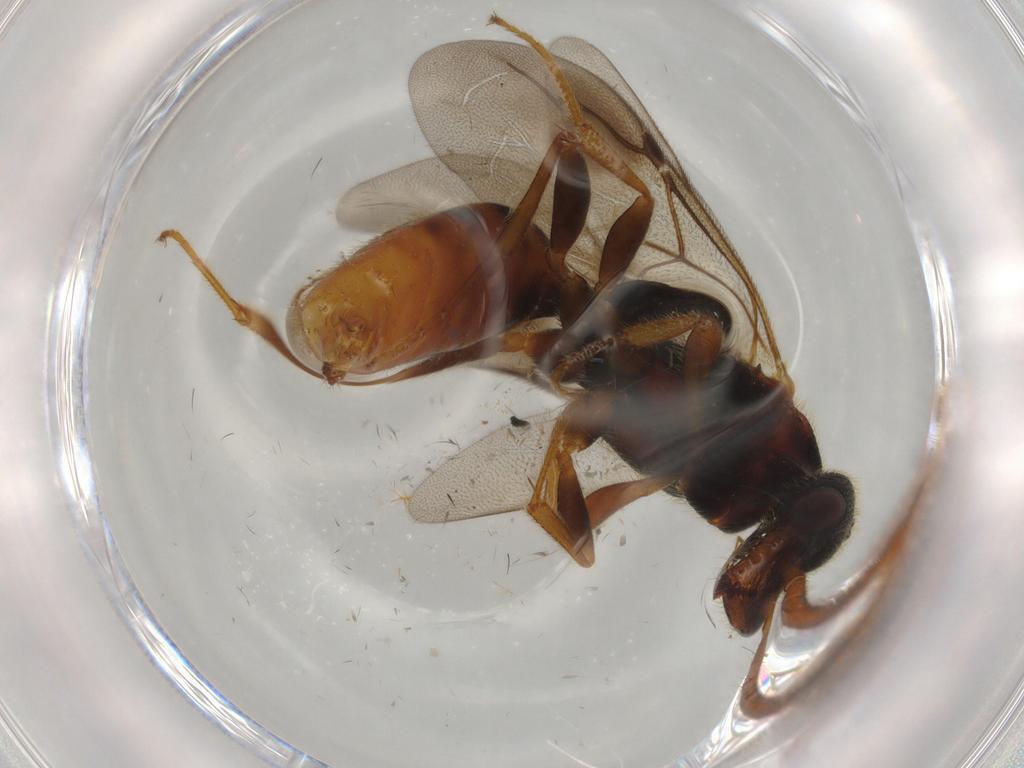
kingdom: Animalia
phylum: Arthropoda
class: Insecta
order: Hymenoptera
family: Bethylidae
